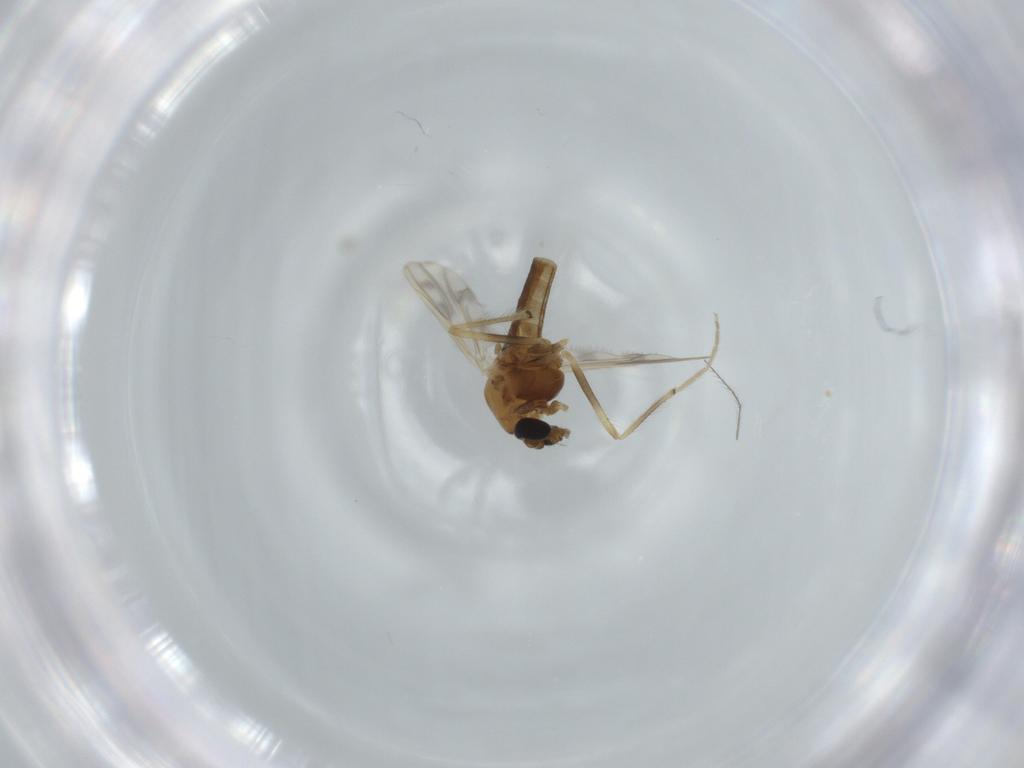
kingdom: Animalia
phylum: Arthropoda
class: Insecta
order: Diptera
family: Chironomidae
